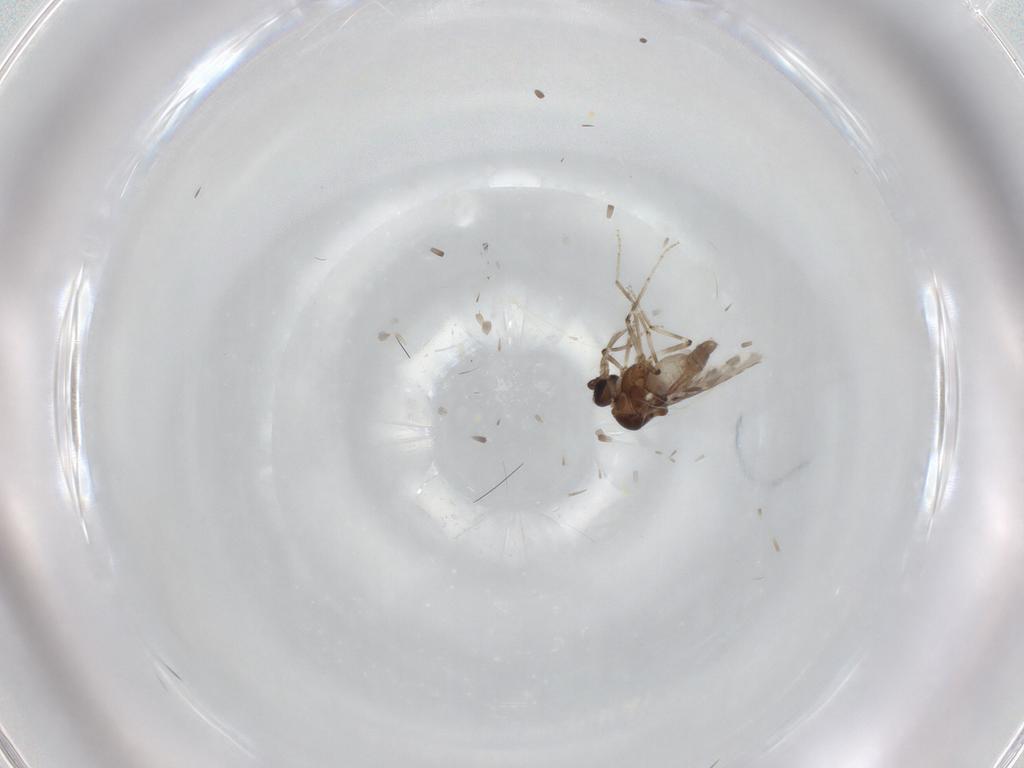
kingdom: Animalia
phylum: Arthropoda
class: Insecta
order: Diptera
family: Ceratopogonidae
